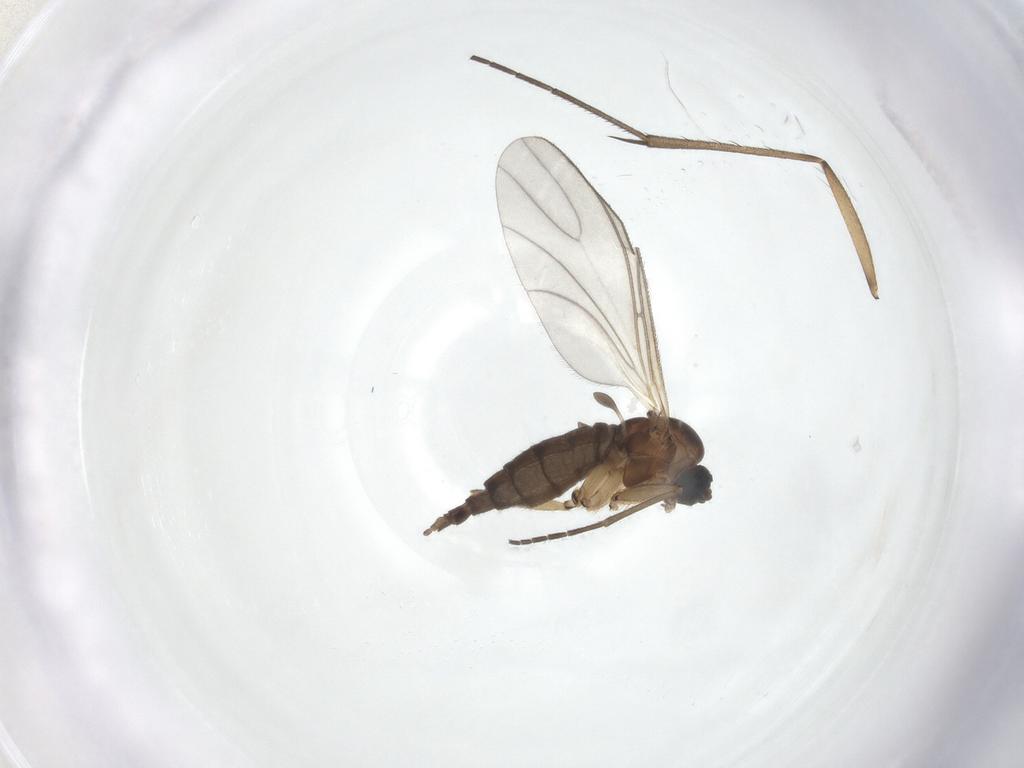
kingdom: Animalia
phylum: Arthropoda
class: Insecta
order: Diptera
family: Sciaridae
